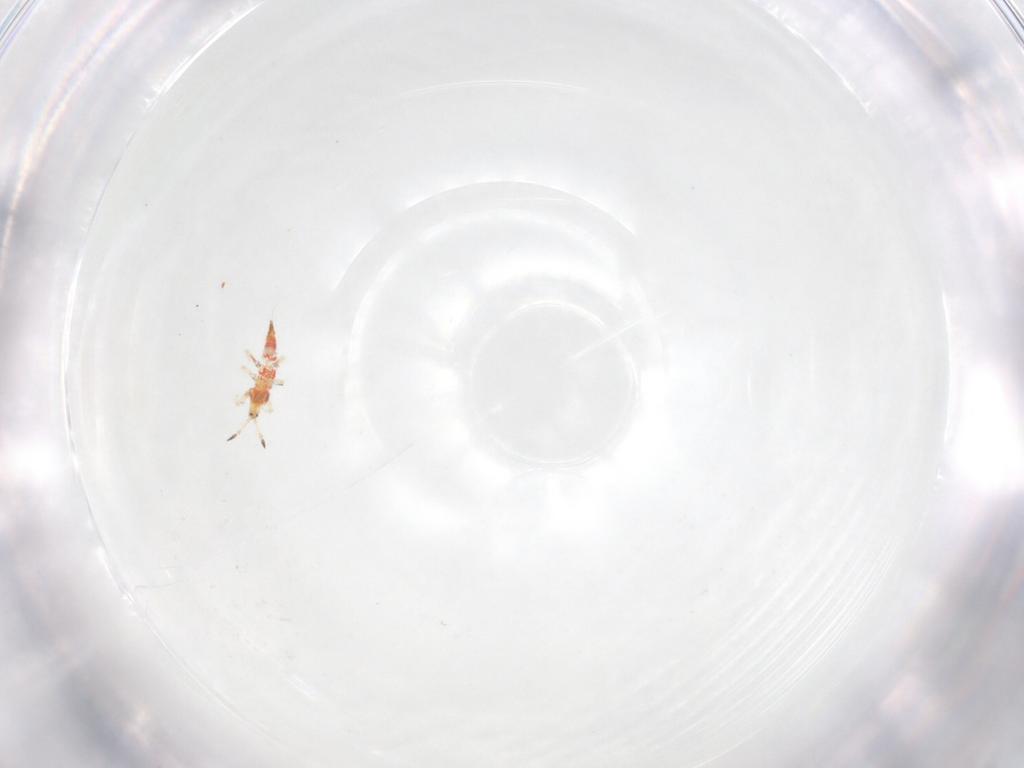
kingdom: Animalia
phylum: Arthropoda
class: Insecta
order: Thysanoptera
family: Phlaeothripidae
